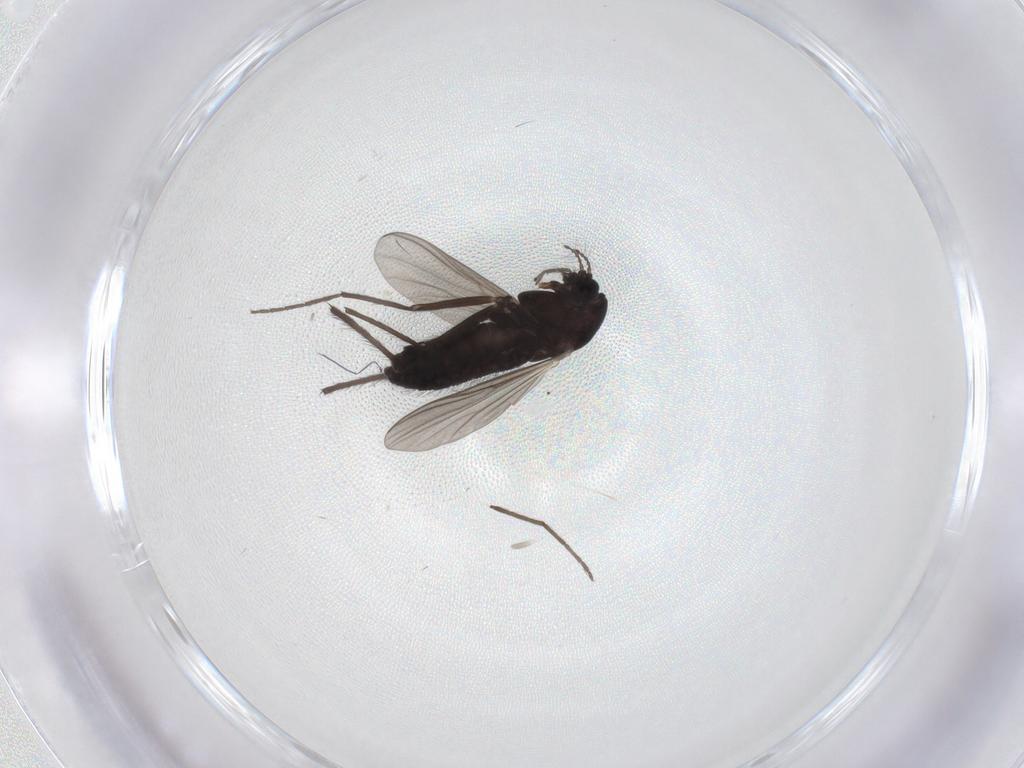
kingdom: Animalia
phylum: Arthropoda
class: Insecta
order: Diptera
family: Chironomidae
